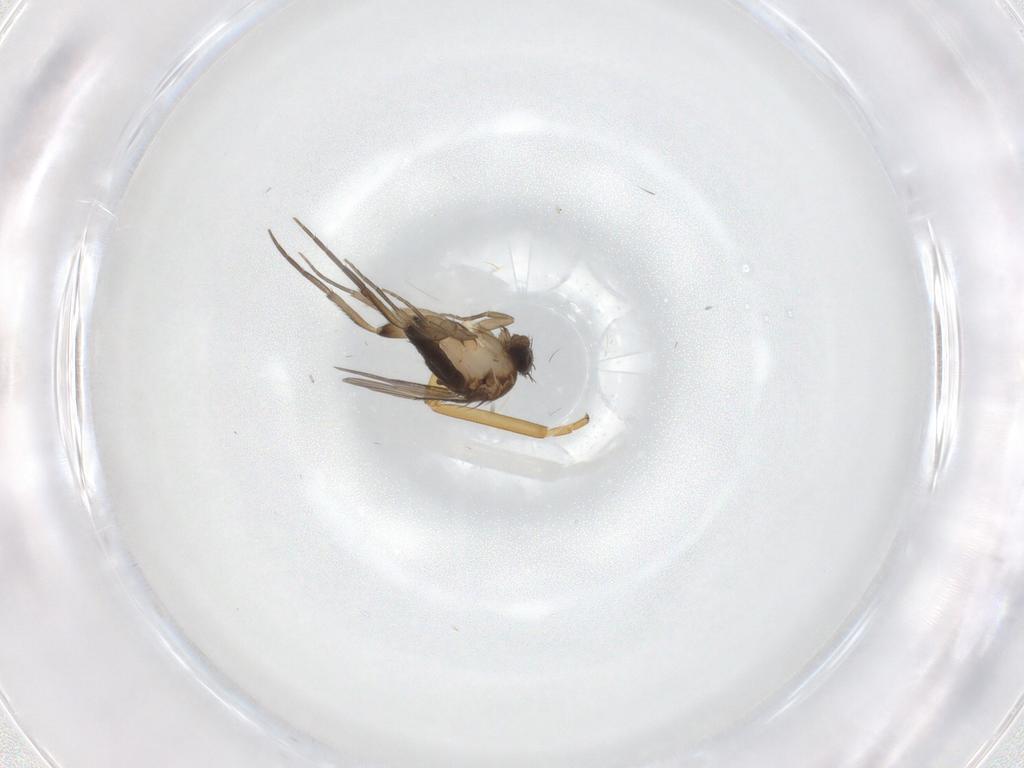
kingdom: Animalia
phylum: Arthropoda
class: Insecta
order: Diptera
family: Phoridae
